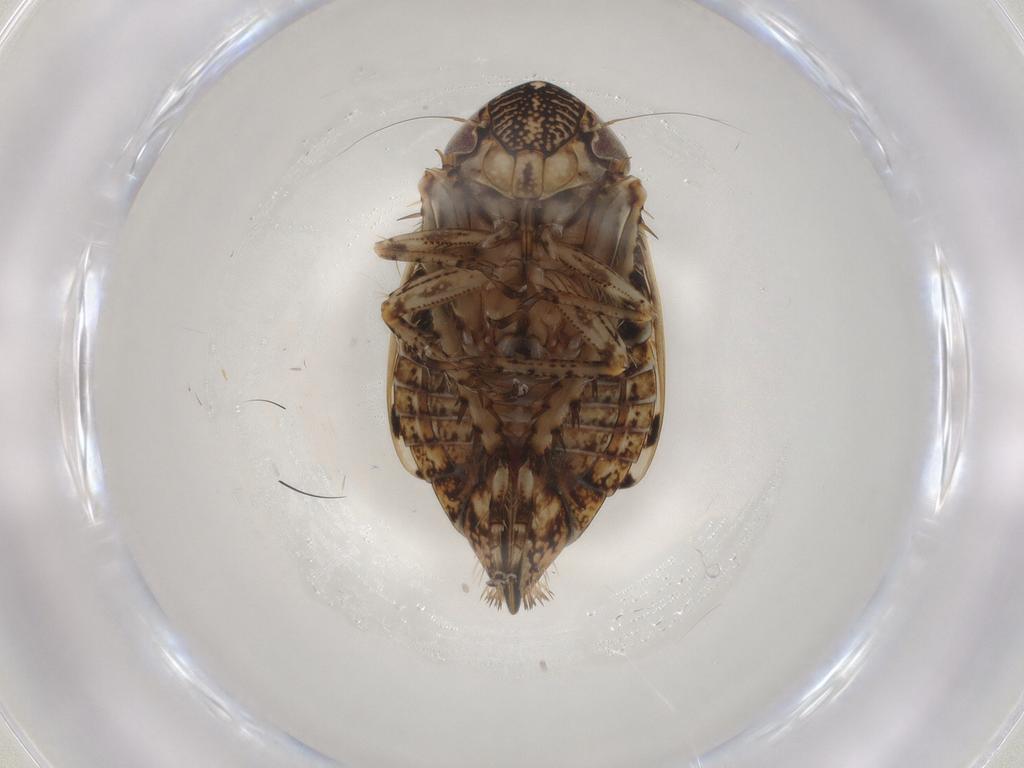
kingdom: Animalia
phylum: Arthropoda
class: Insecta
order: Hemiptera
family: Cicadellidae
